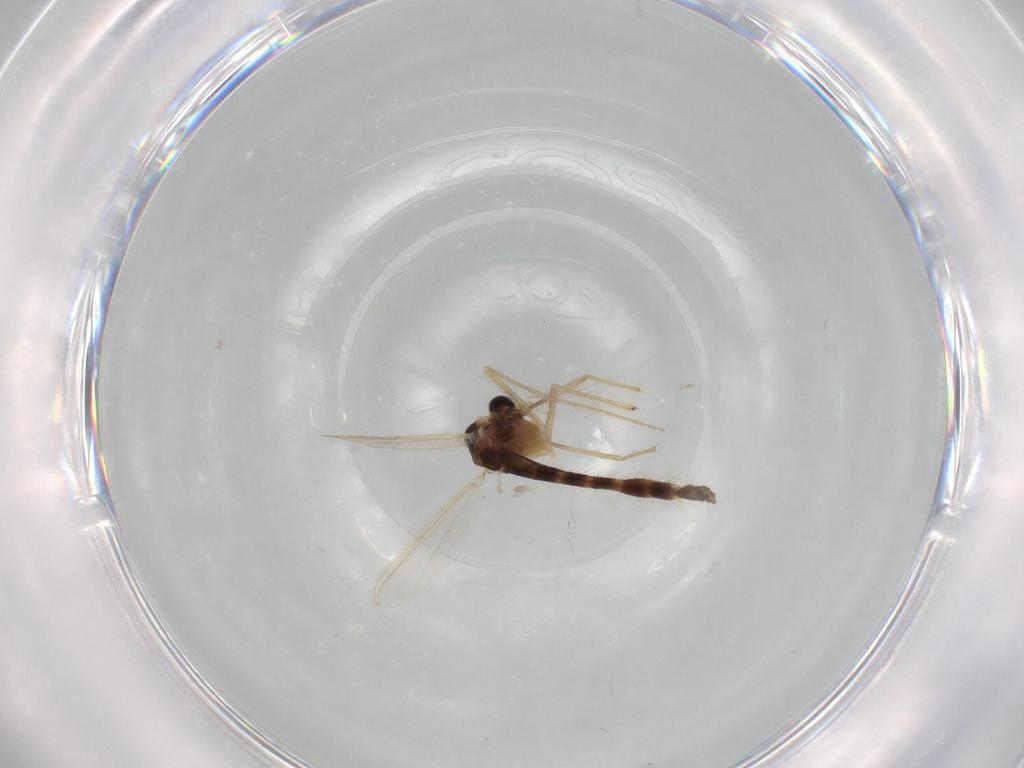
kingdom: Animalia
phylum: Arthropoda
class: Insecta
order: Diptera
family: Chironomidae
